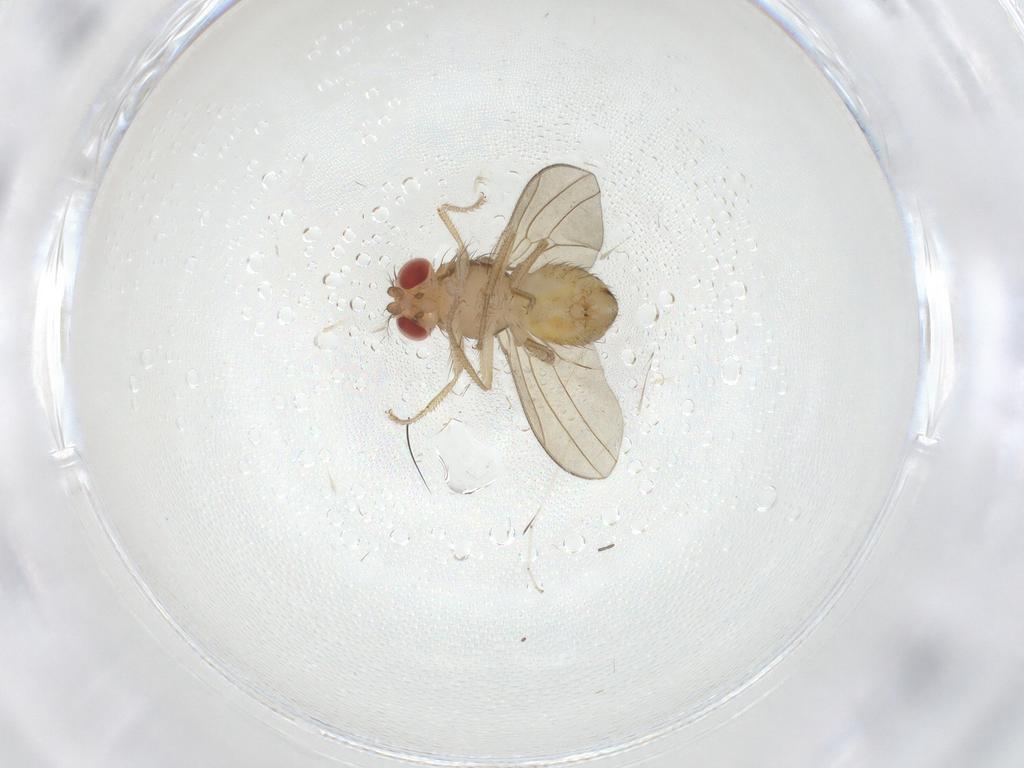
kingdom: Animalia
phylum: Arthropoda
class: Insecta
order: Diptera
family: Drosophilidae
